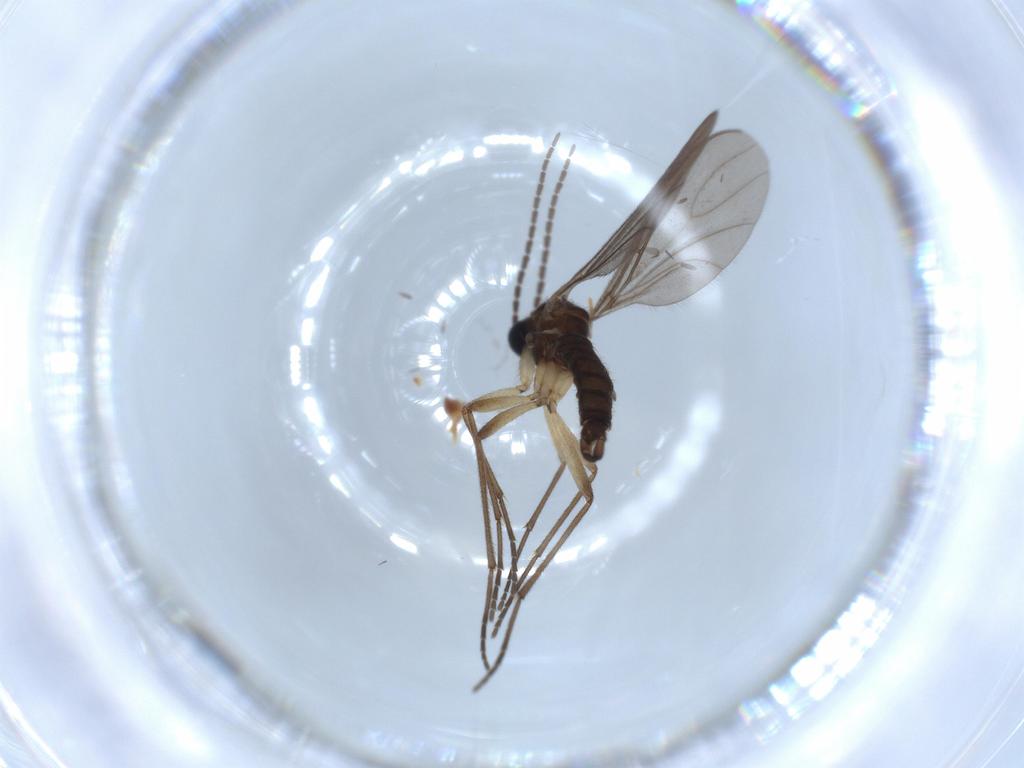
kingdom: Animalia
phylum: Arthropoda
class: Insecta
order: Diptera
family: Sciaridae
